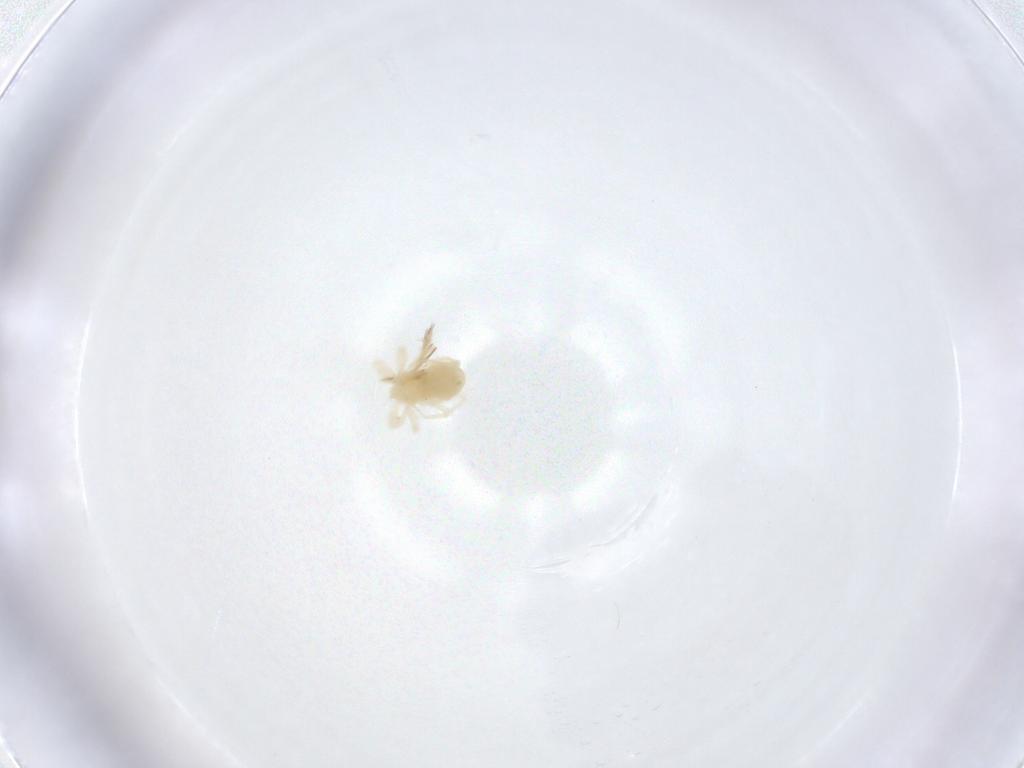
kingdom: Animalia
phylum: Arthropoda
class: Arachnida
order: Trombidiformes
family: Anystidae
